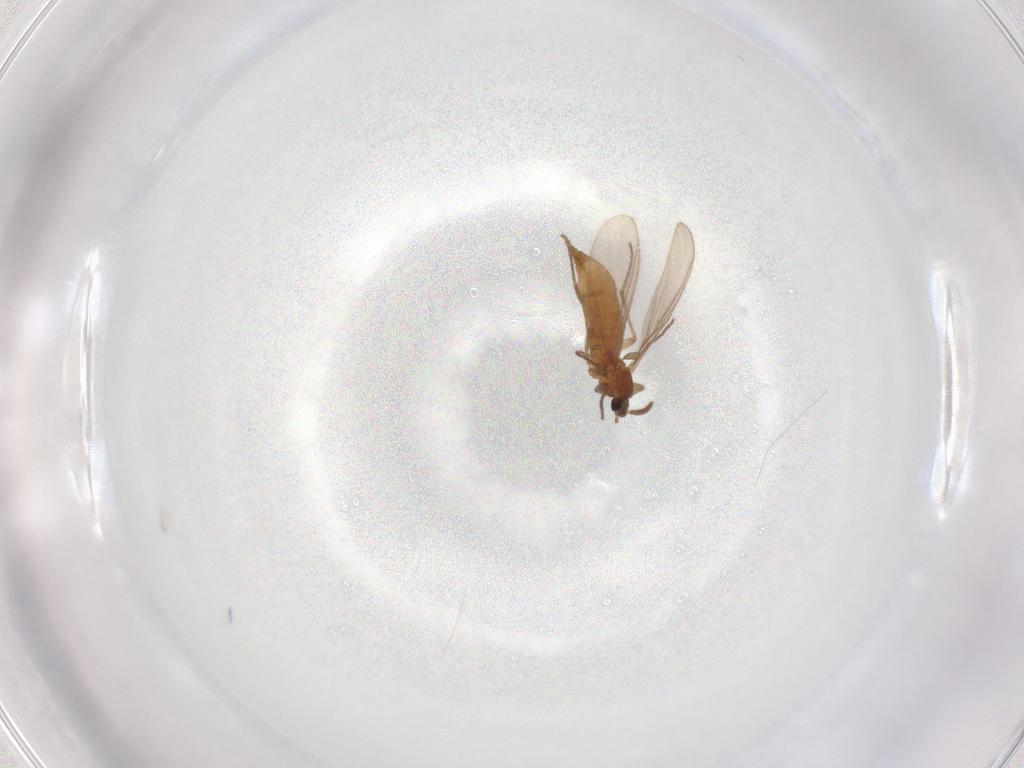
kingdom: Animalia
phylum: Arthropoda
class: Insecta
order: Diptera
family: Sciaridae
